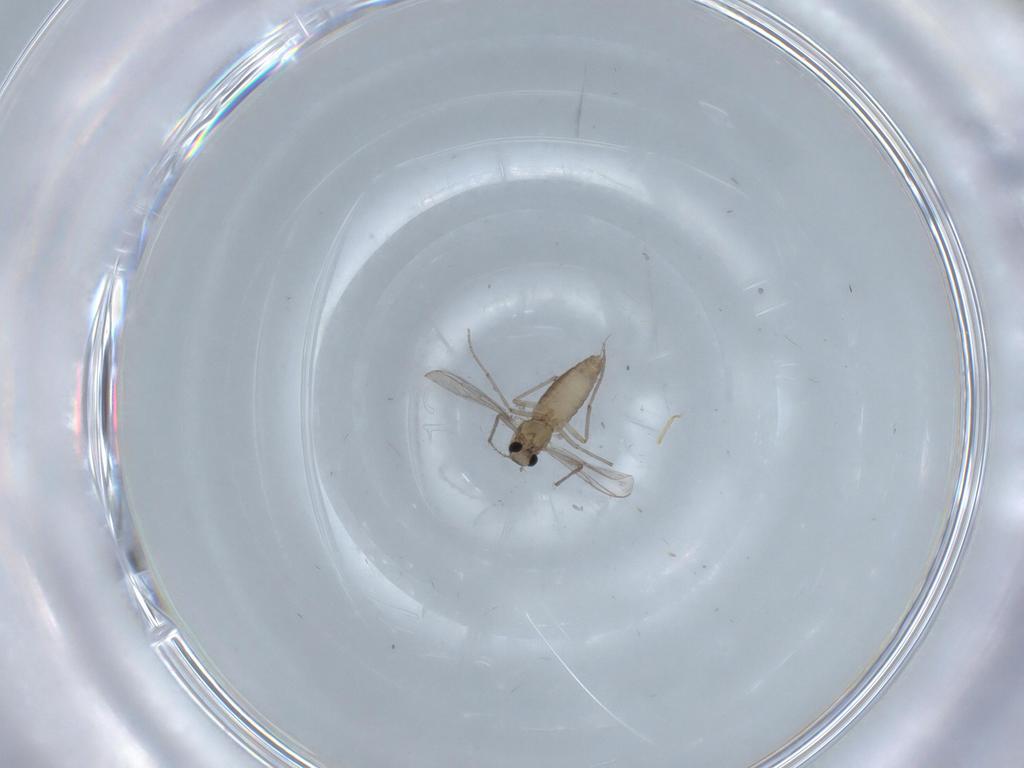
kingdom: Animalia
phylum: Arthropoda
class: Insecta
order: Diptera
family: Chironomidae
